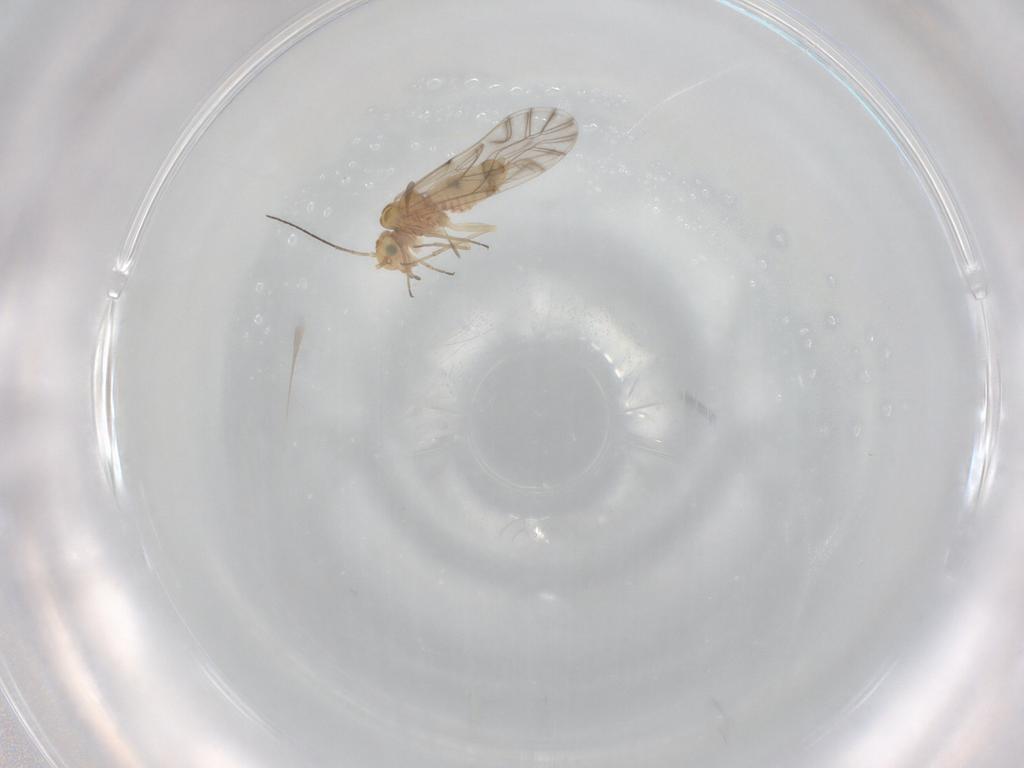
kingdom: Animalia
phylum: Arthropoda
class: Insecta
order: Psocodea
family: Lachesillidae
